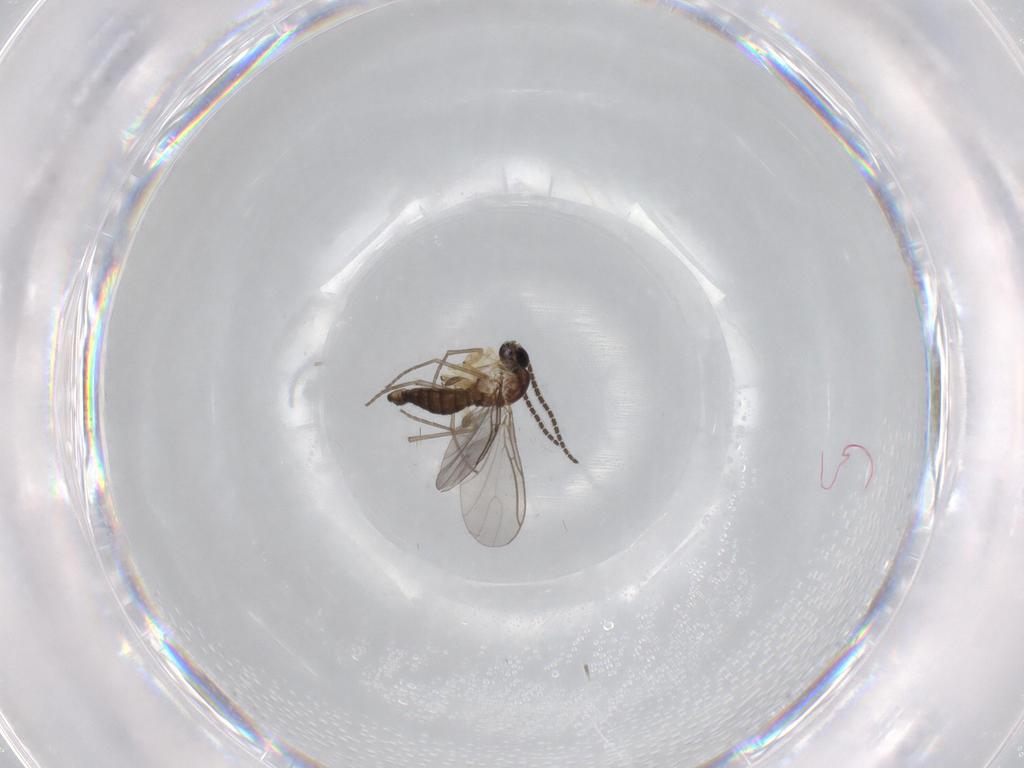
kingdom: Animalia
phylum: Arthropoda
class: Insecta
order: Diptera
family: Sciaridae
